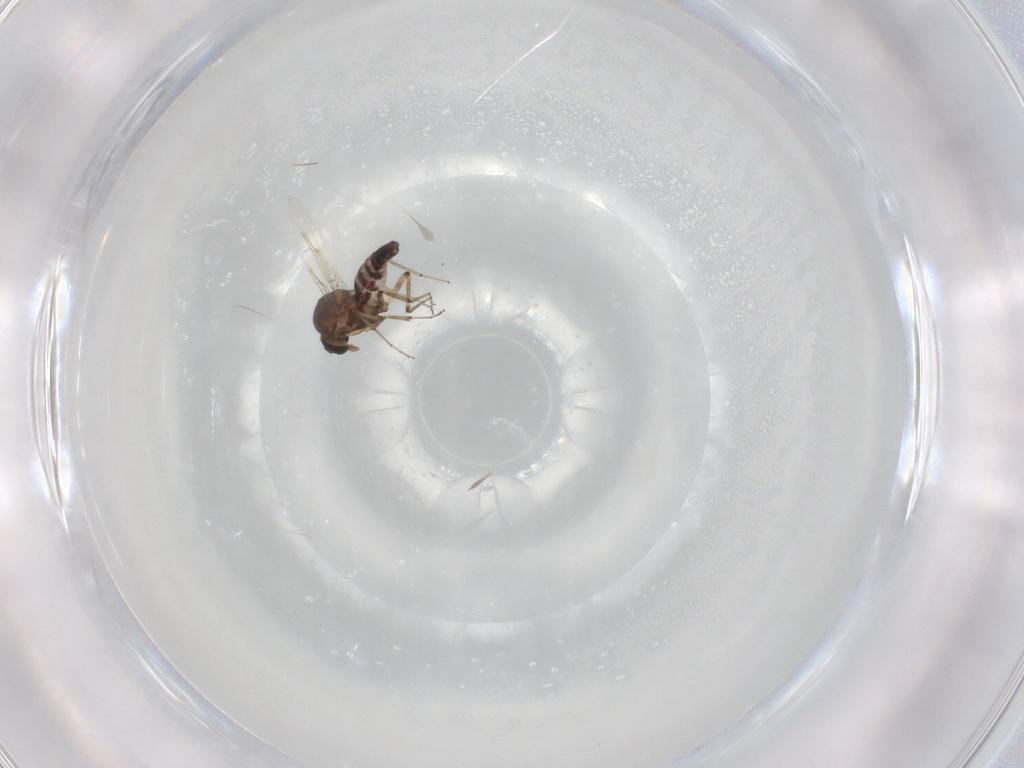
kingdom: Animalia
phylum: Arthropoda
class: Insecta
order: Diptera
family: Ceratopogonidae
